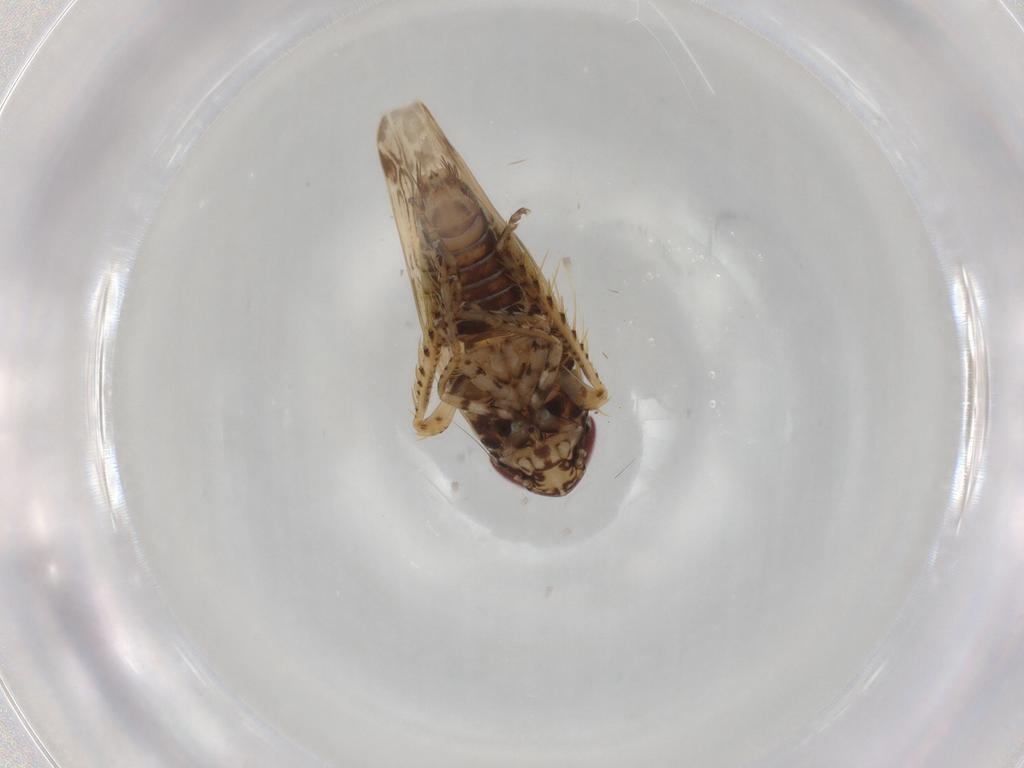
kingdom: Animalia
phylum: Arthropoda
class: Insecta
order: Hemiptera
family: Cicadellidae
